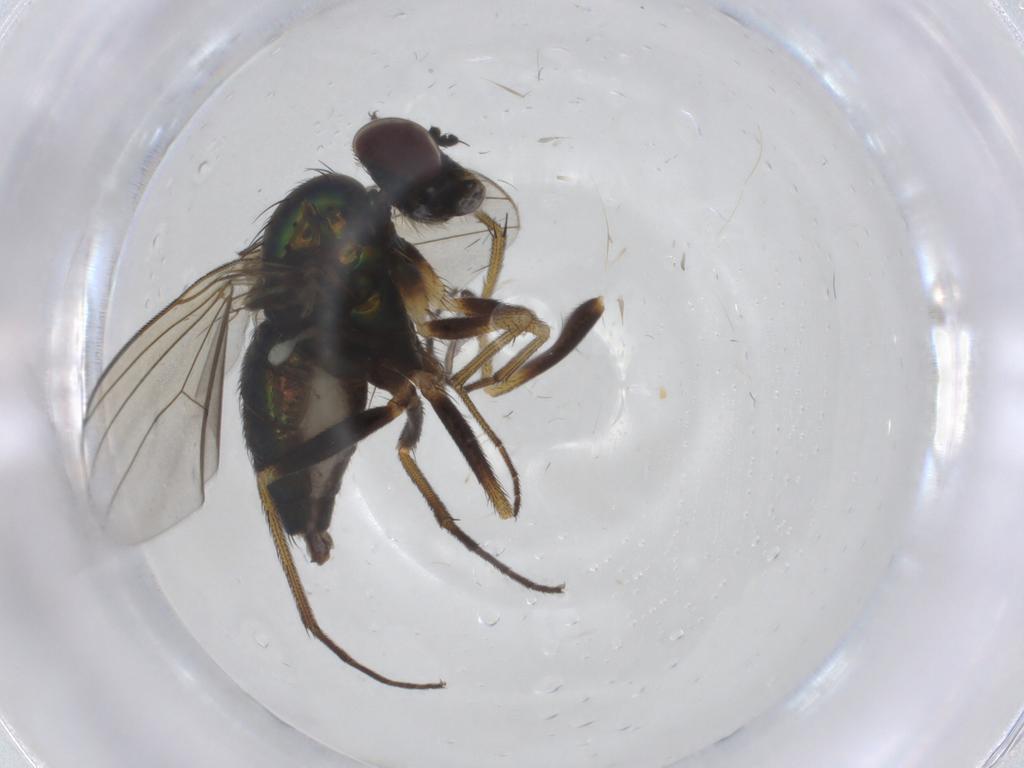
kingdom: Animalia
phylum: Arthropoda
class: Insecta
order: Diptera
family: Dolichopodidae
